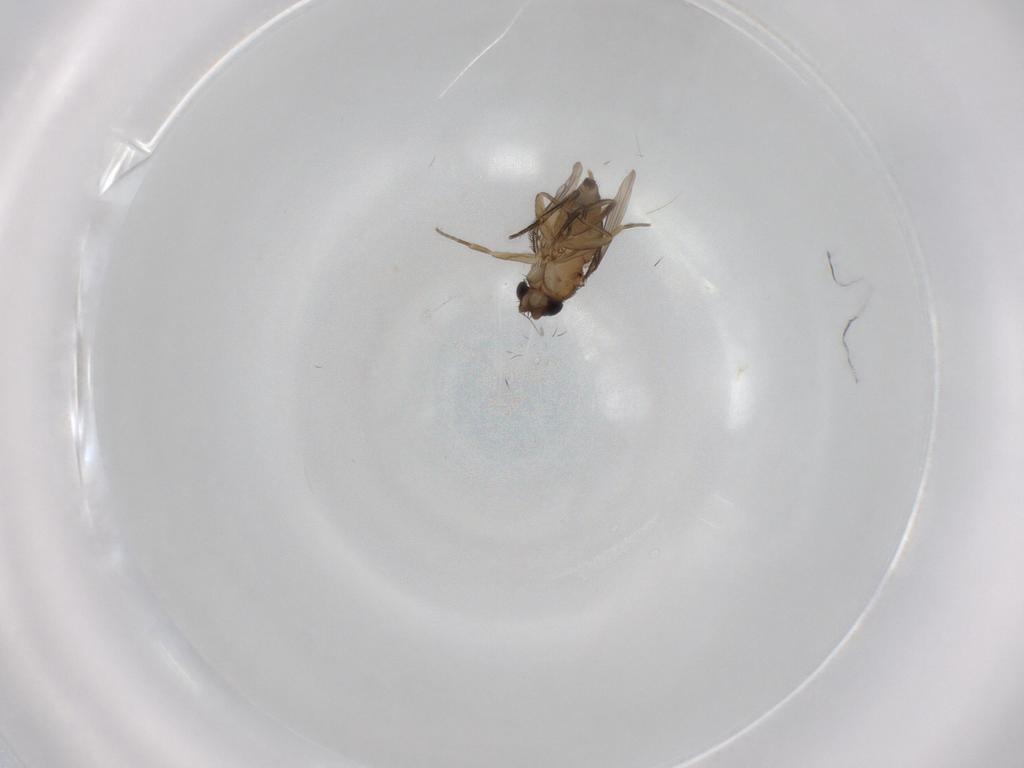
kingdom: Animalia
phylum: Arthropoda
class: Insecta
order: Diptera
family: Phoridae
